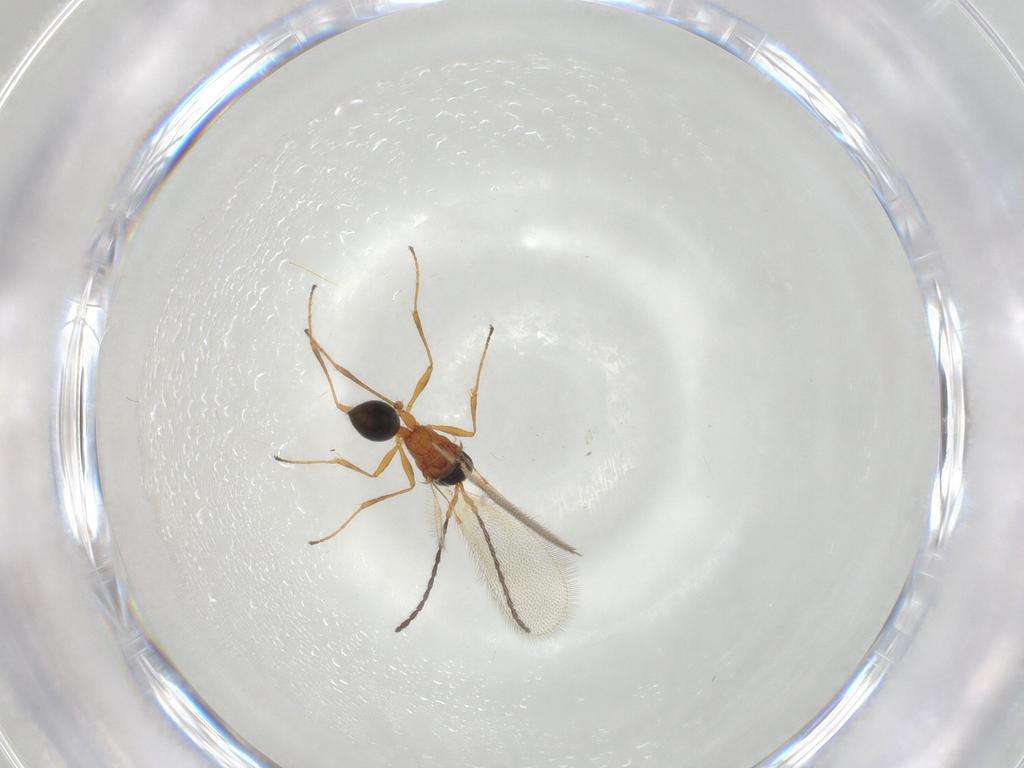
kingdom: Animalia
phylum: Arthropoda
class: Insecta
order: Hymenoptera
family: Diapriidae
